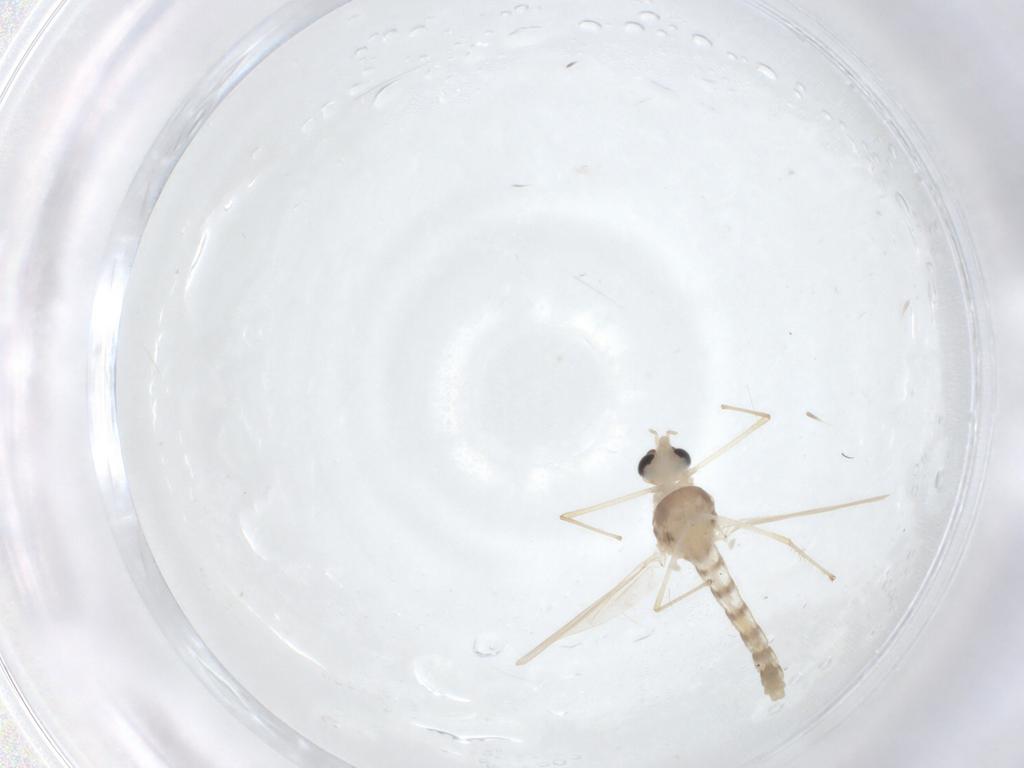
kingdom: Animalia
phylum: Arthropoda
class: Insecta
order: Diptera
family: Chironomidae
